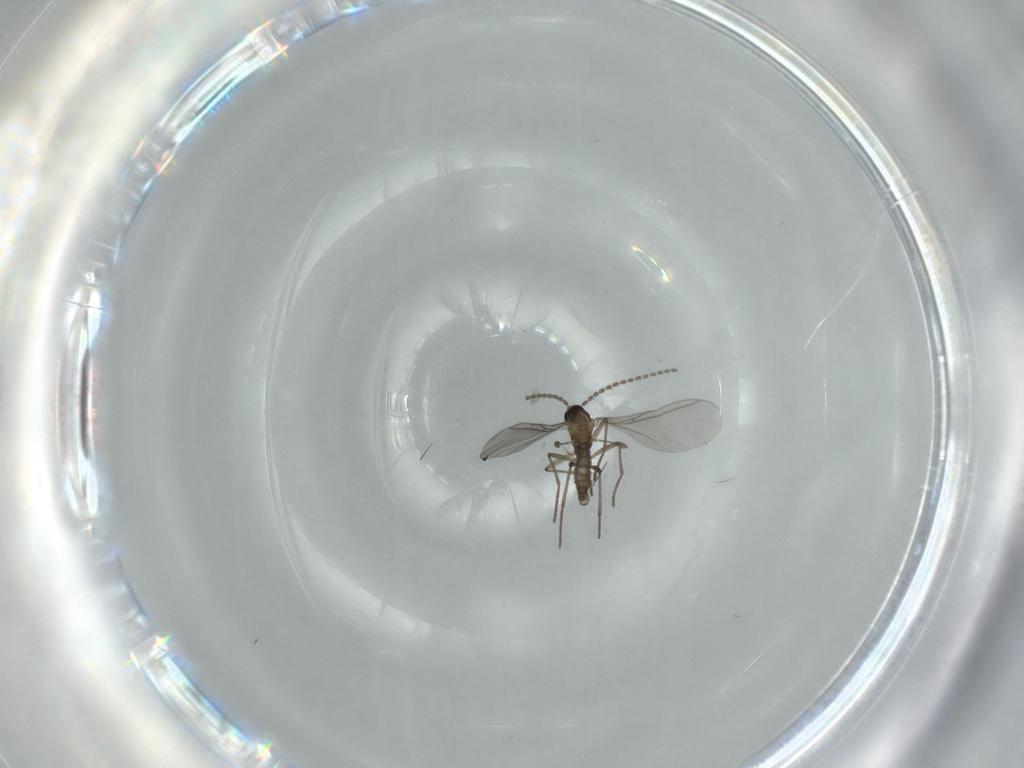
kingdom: Animalia
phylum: Arthropoda
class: Insecta
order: Diptera
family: Sciaridae
